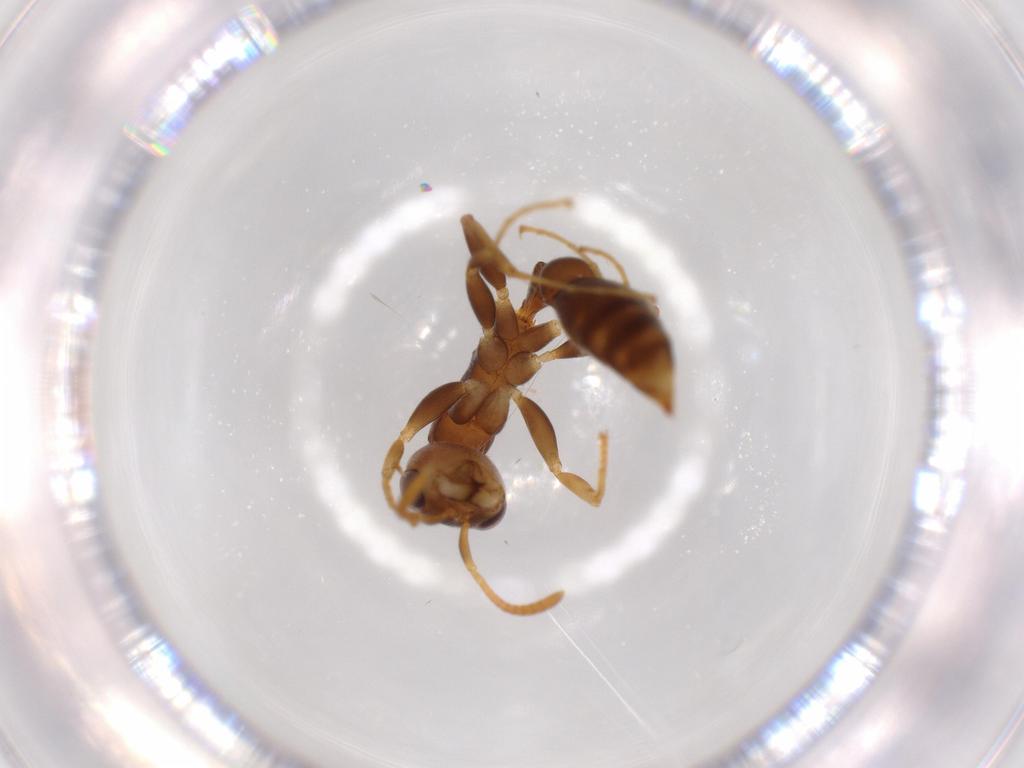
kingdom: Animalia
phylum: Arthropoda
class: Insecta
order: Hymenoptera
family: Formicidae
